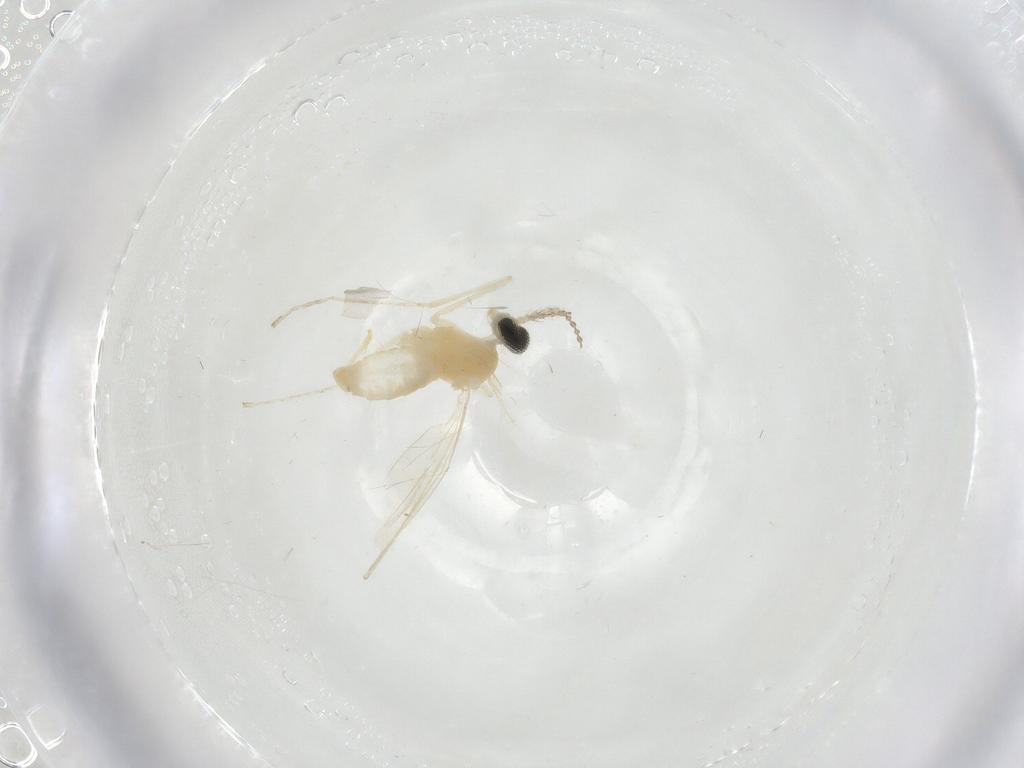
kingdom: Animalia
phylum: Arthropoda
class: Insecta
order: Diptera
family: Cecidomyiidae
